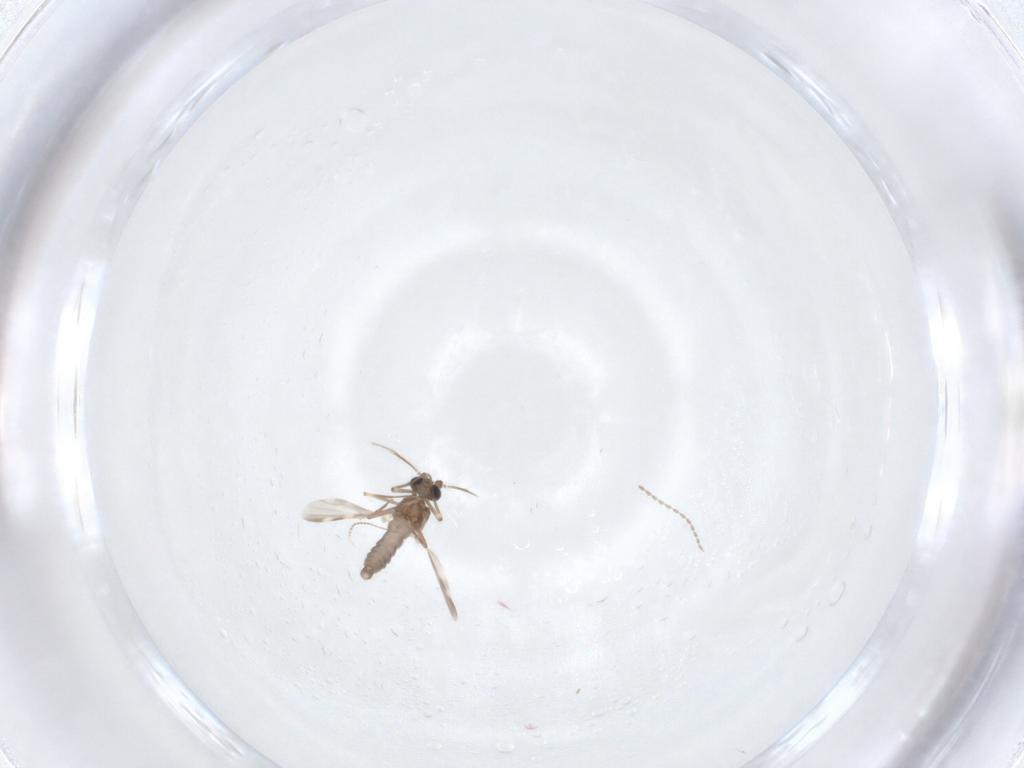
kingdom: Animalia
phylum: Arthropoda
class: Insecta
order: Diptera
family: Chironomidae
